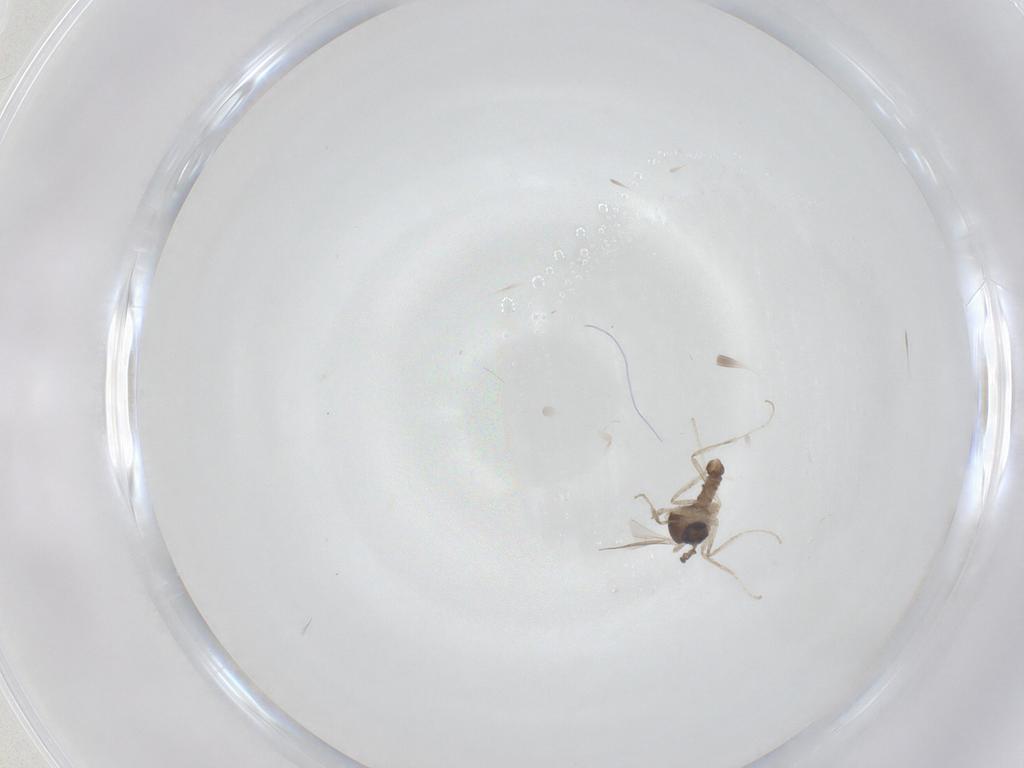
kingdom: Animalia
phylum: Arthropoda
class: Insecta
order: Diptera
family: Cecidomyiidae
